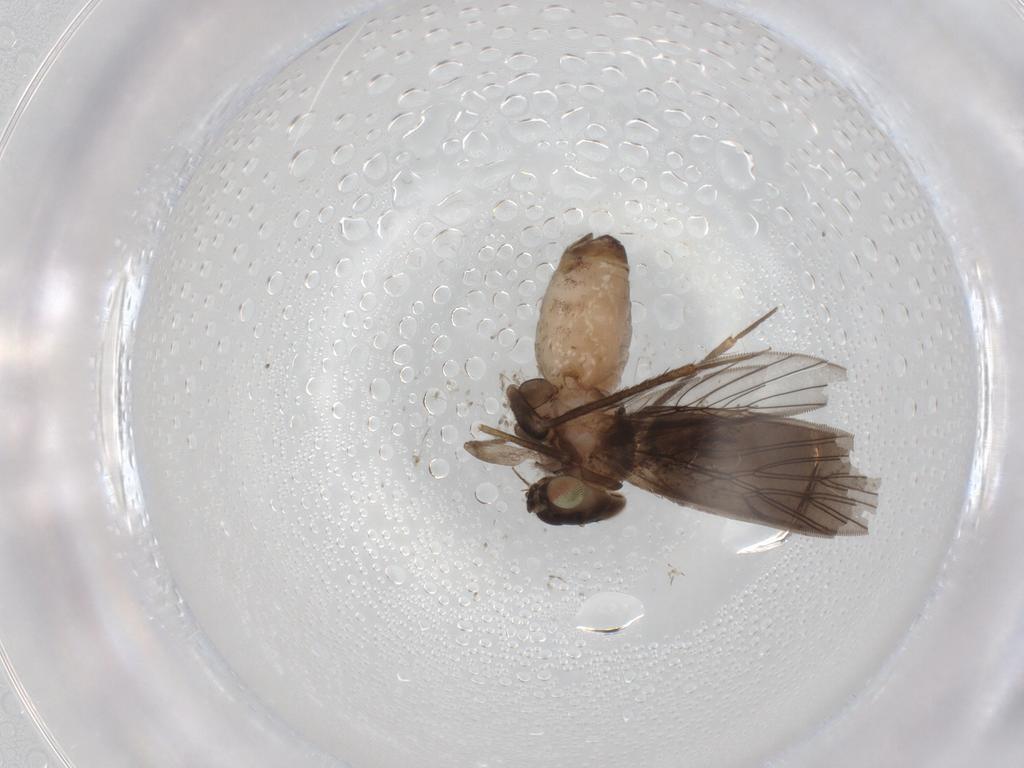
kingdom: Animalia
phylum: Arthropoda
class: Insecta
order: Psocodea
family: Lepidopsocidae
